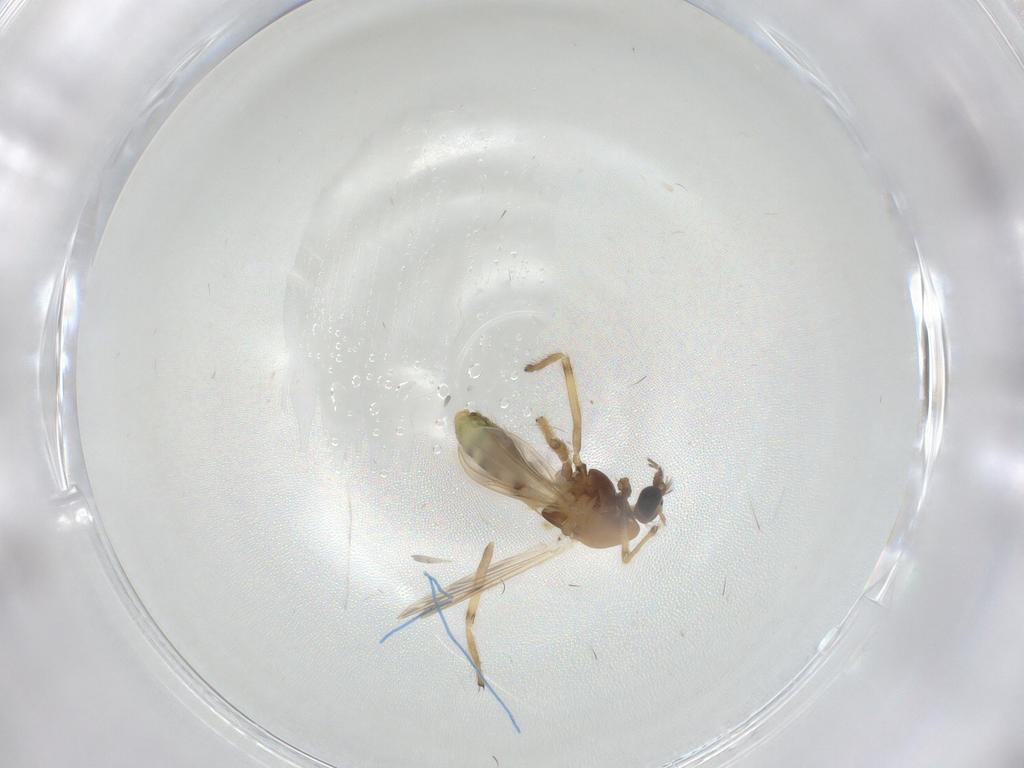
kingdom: Animalia
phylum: Arthropoda
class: Insecta
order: Diptera
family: Chironomidae
